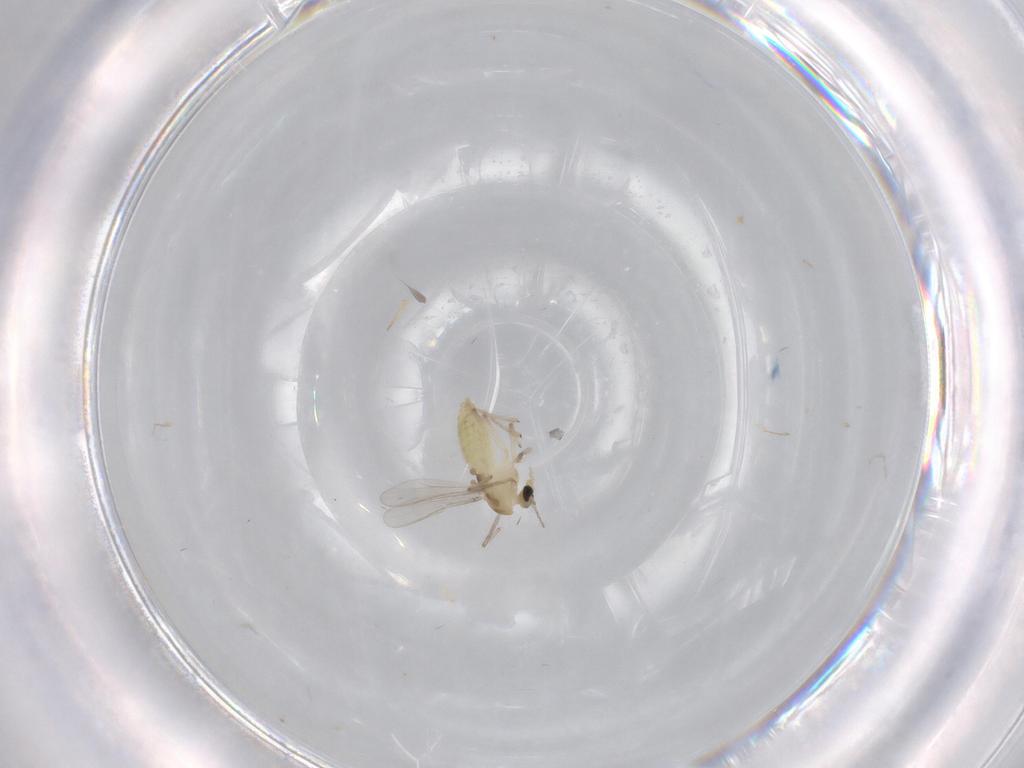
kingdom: Animalia
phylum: Arthropoda
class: Insecta
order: Diptera
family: Chironomidae
